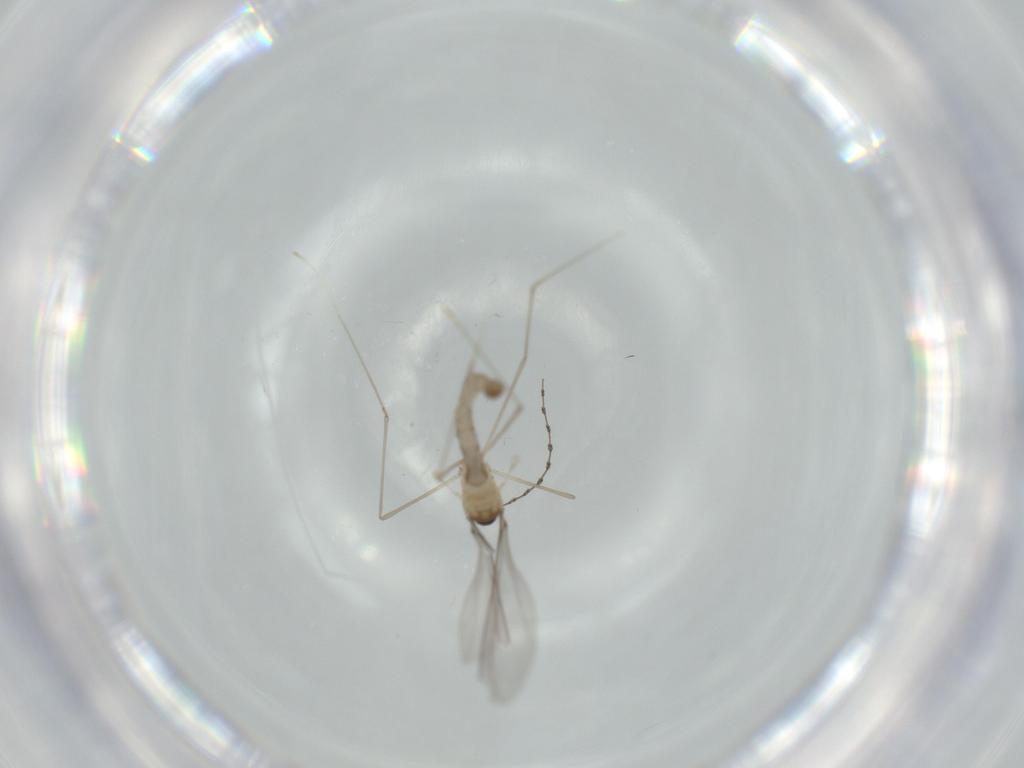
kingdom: Animalia
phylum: Arthropoda
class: Insecta
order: Diptera
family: Cecidomyiidae
